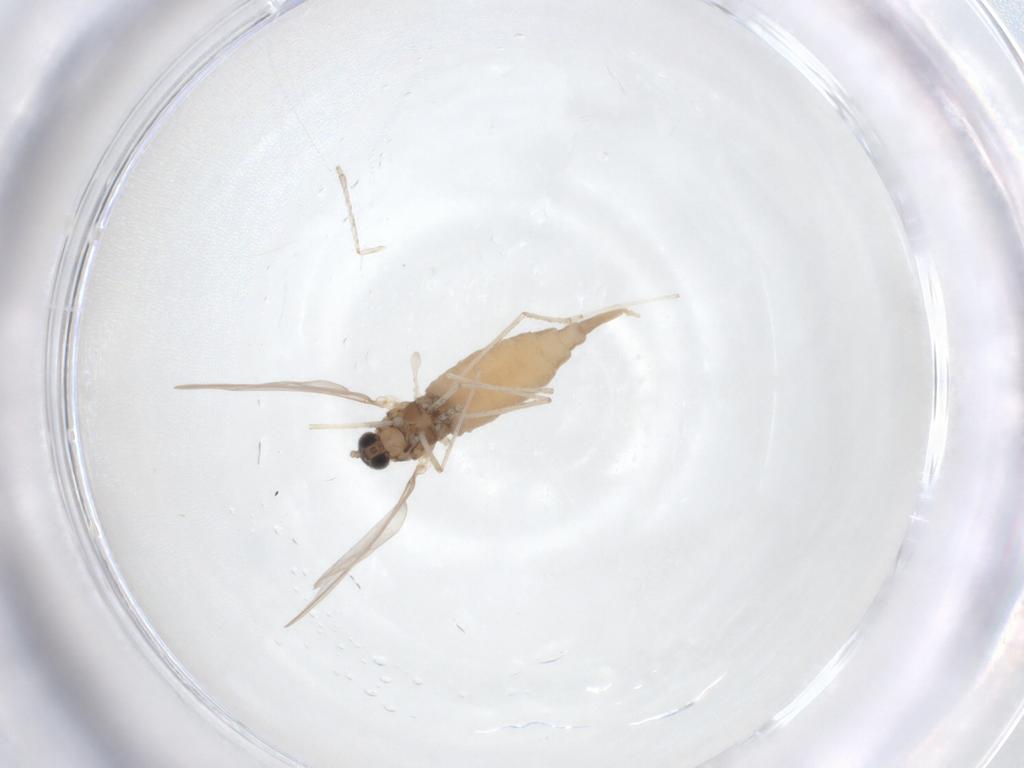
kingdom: Animalia
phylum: Arthropoda
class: Insecta
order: Diptera
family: Cecidomyiidae
